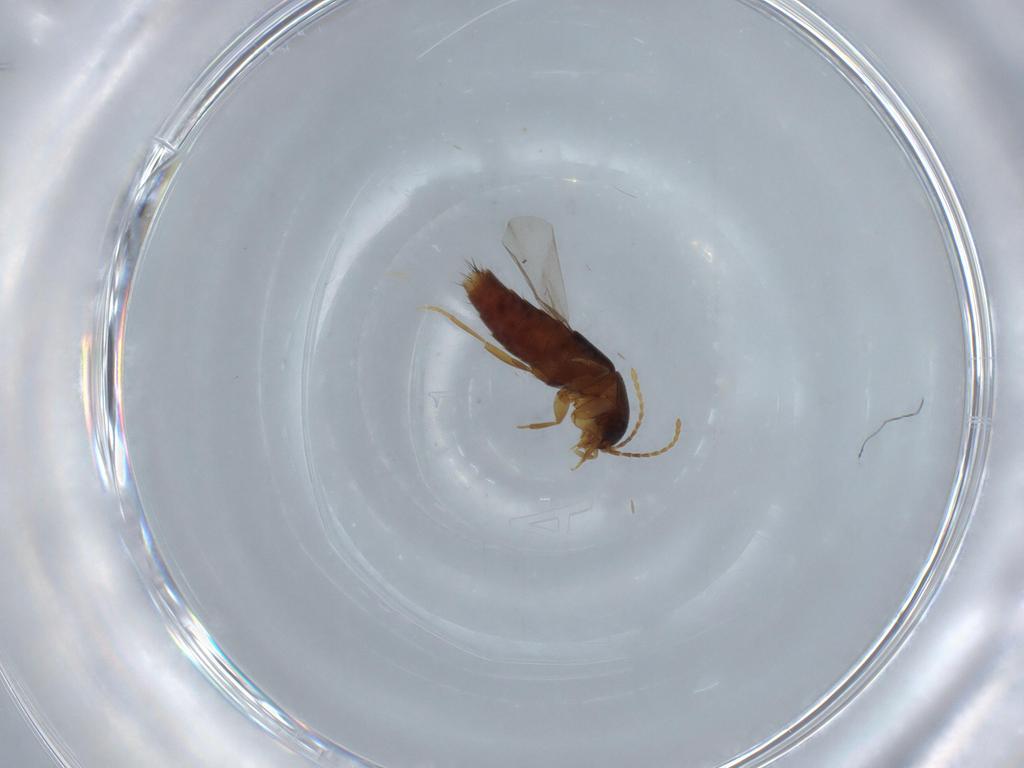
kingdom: Animalia
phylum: Arthropoda
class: Insecta
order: Coleoptera
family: Staphylinidae
